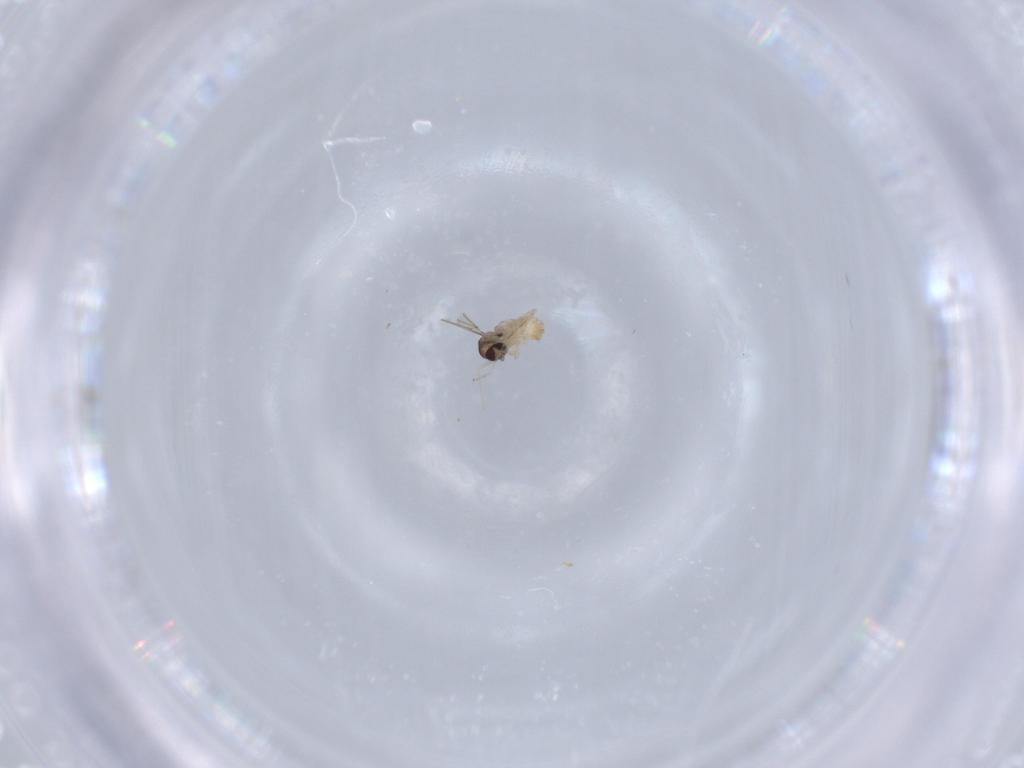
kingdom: Animalia
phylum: Arthropoda
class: Insecta
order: Diptera
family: Cecidomyiidae
